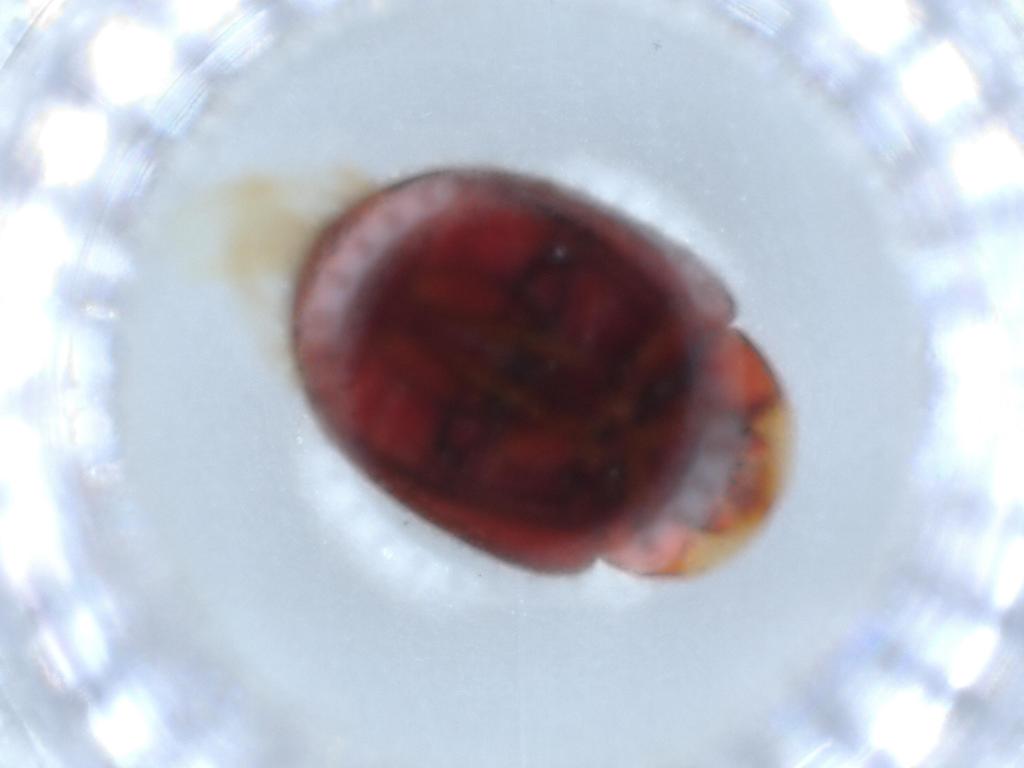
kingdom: Animalia
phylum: Arthropoda
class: Insecta
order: Coleoptera
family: Coccinellidae
